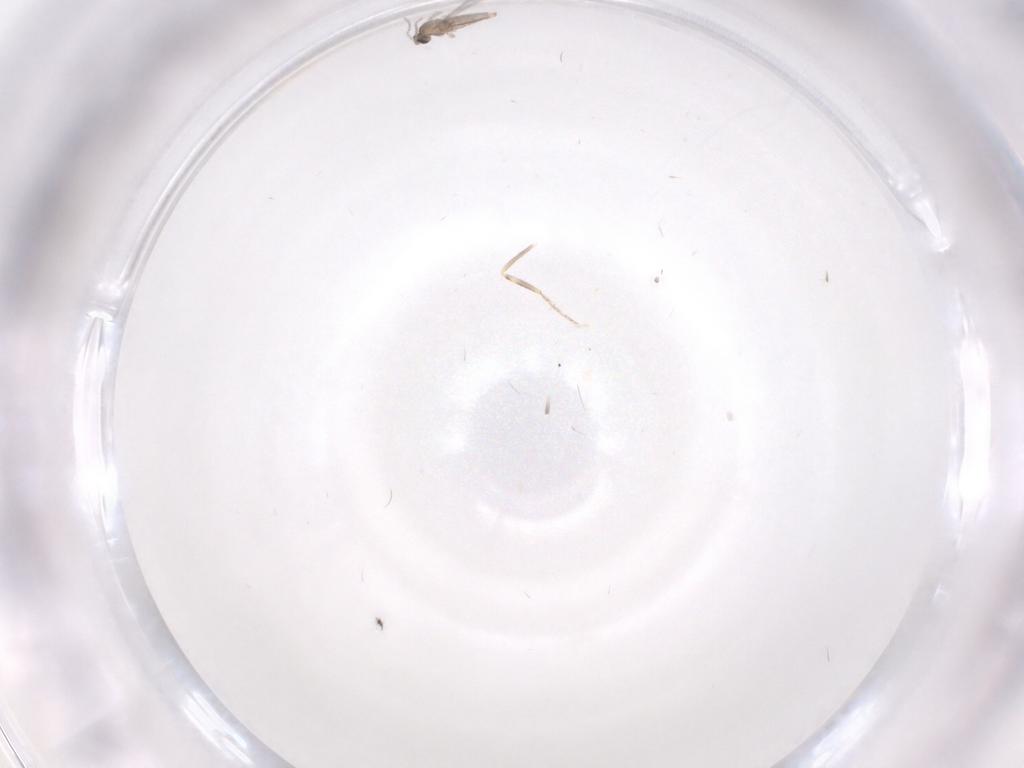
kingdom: Animalia
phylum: Arthropoda
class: Insecta
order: Diptera
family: Ceratopogonidae
